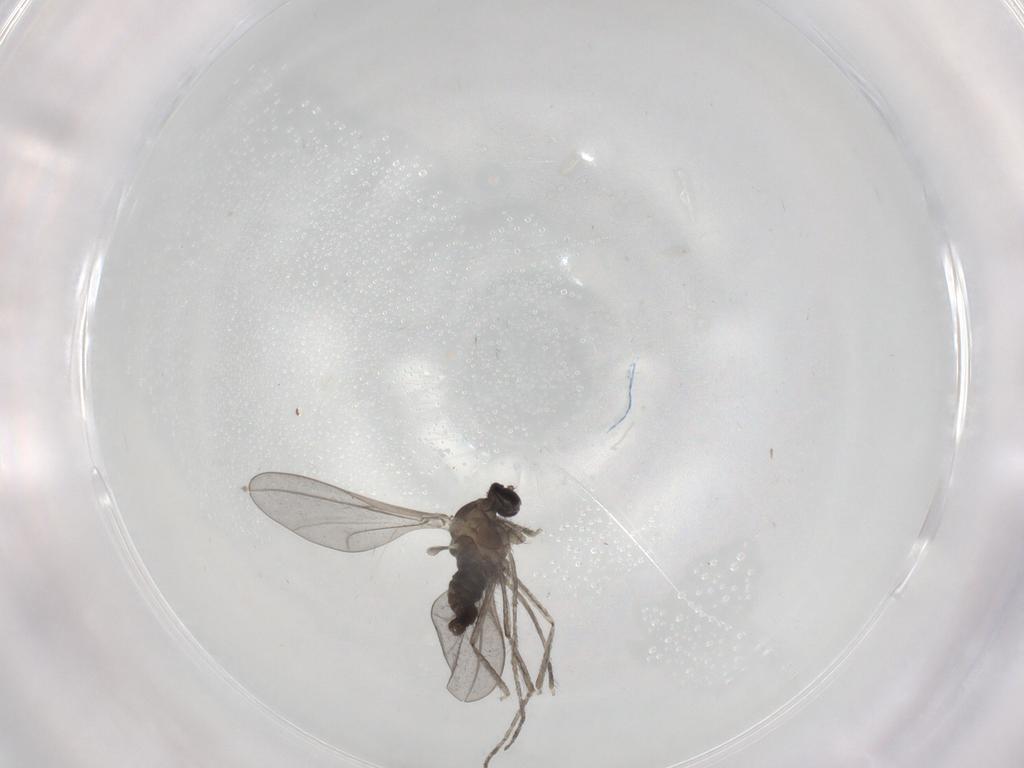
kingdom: Animalia
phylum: Arthropoda
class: Insecta
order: Diptera
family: Cecidomyiidae
